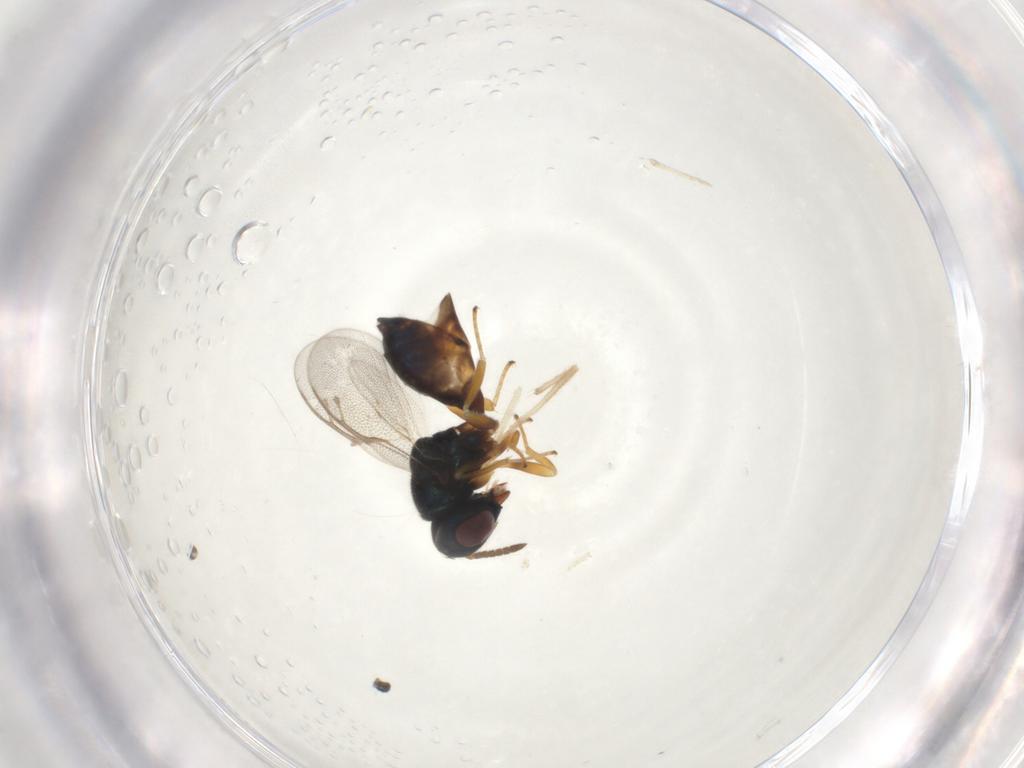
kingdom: Animalia
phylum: Arthropoda
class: Insecta
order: Hymenoptera
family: Pteromalidae
